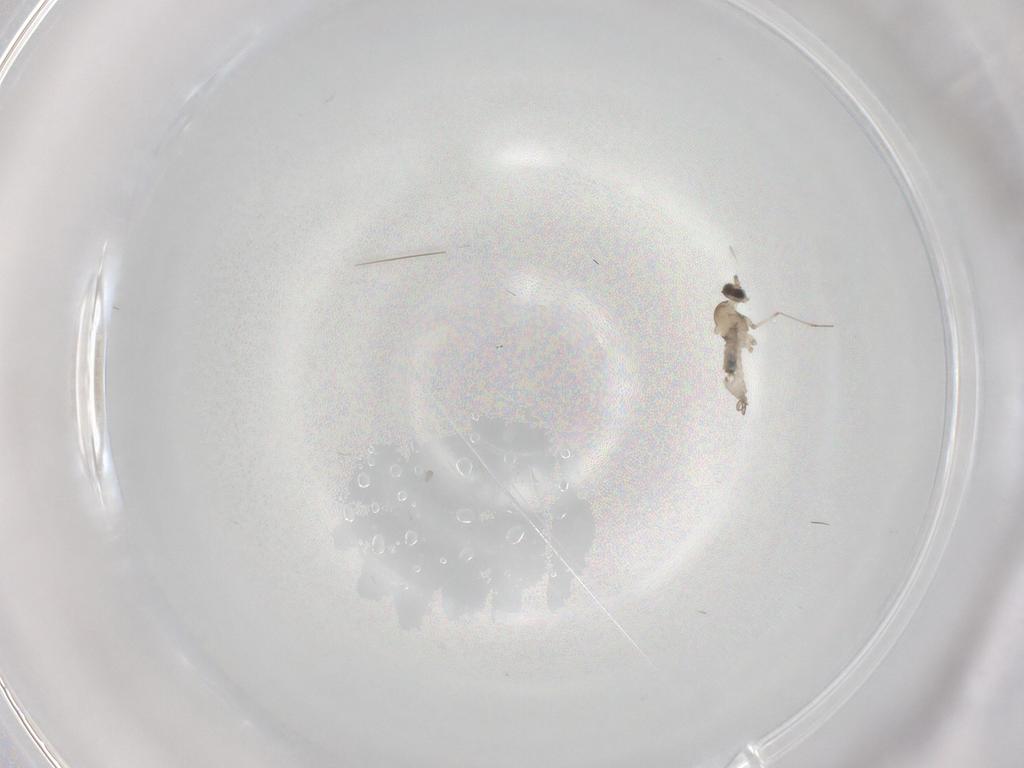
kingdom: Animalia
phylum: Arthropoda
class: Insecta
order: Diptera
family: Cecidomyiidae
